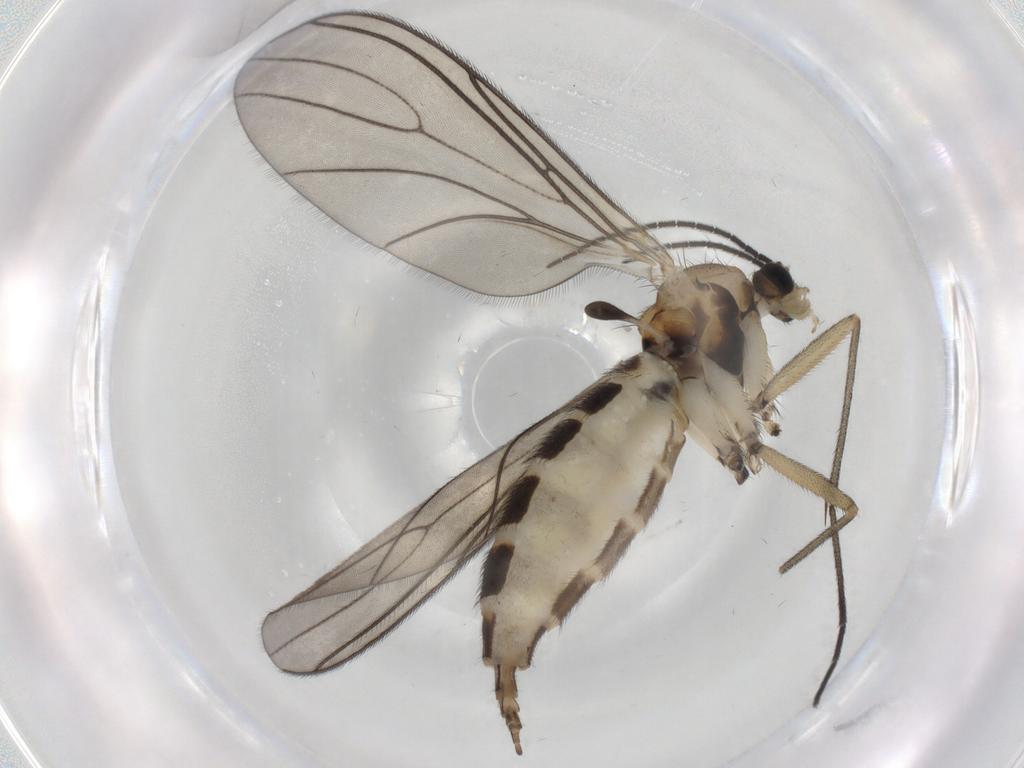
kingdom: Animalia
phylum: Arthropoda
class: Insecta
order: Diptera
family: Sciaridae
